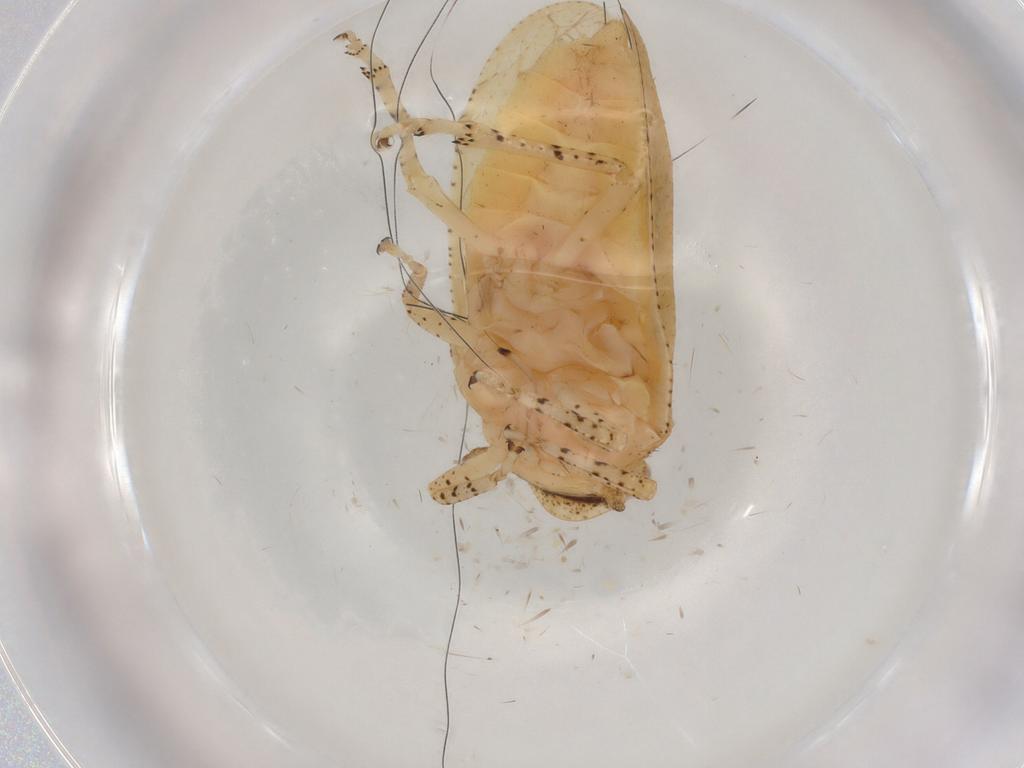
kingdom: Animalia
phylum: Arthropoda
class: Insecta
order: Hemiptera
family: Tettigometridae
